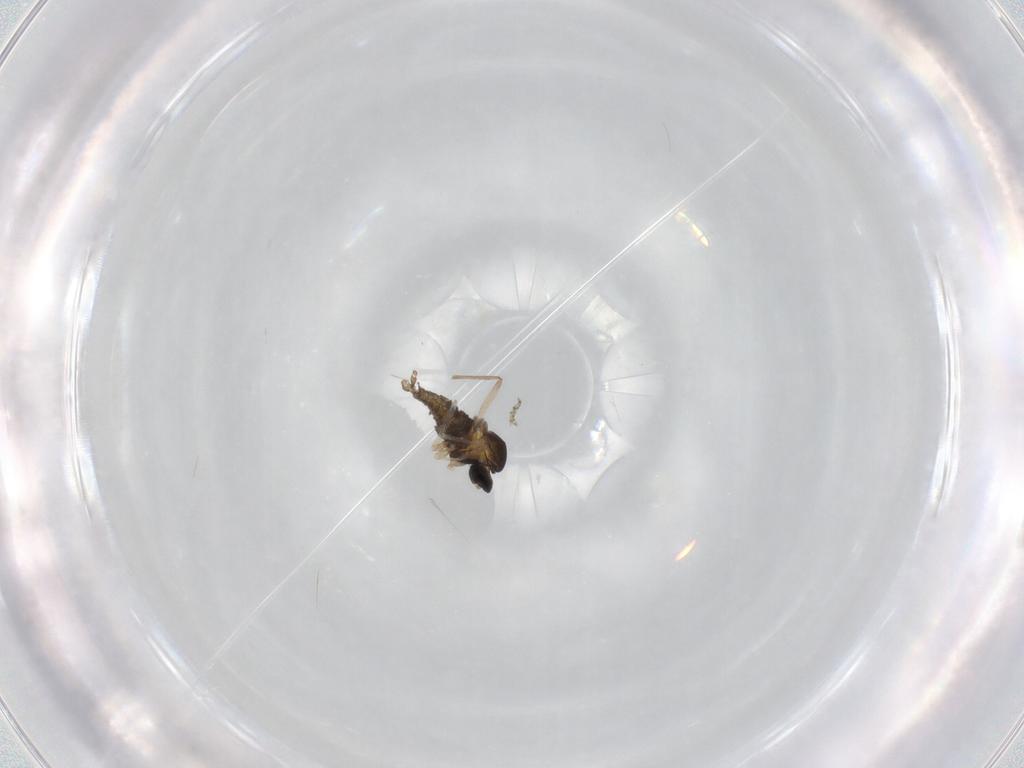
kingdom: Animalia
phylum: Arthropoda
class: Insecta
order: Diptera
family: Cecidomyiidae
